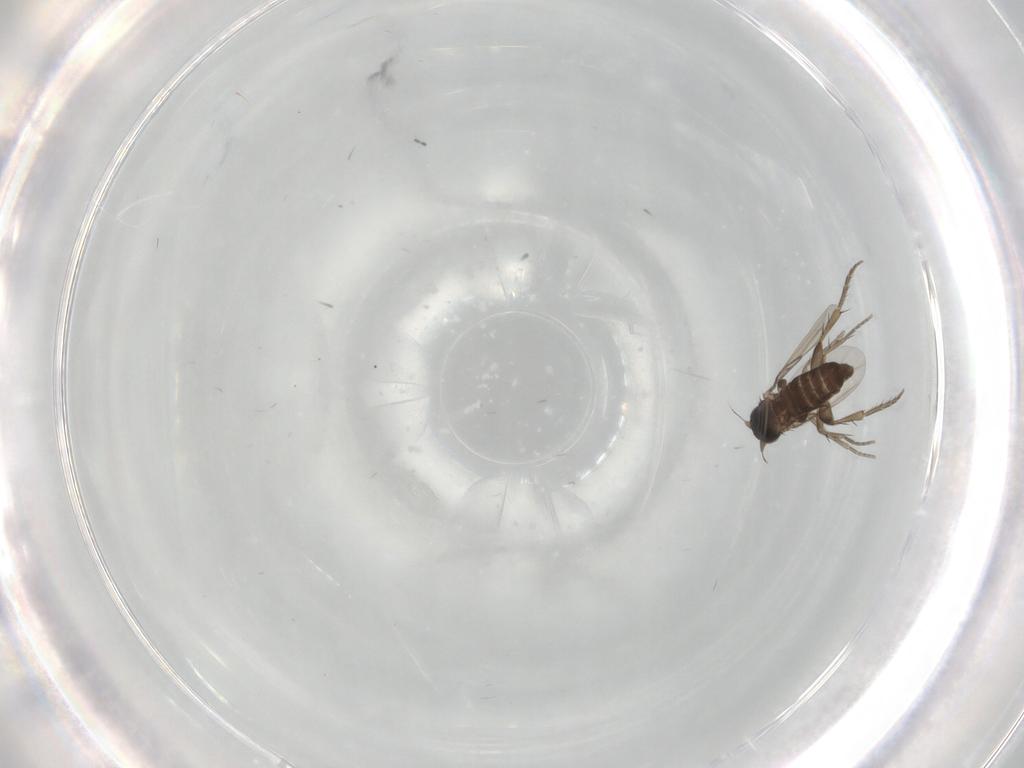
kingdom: Animalia
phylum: Arthropoda
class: Insecta
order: Diptera
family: Phoridae
